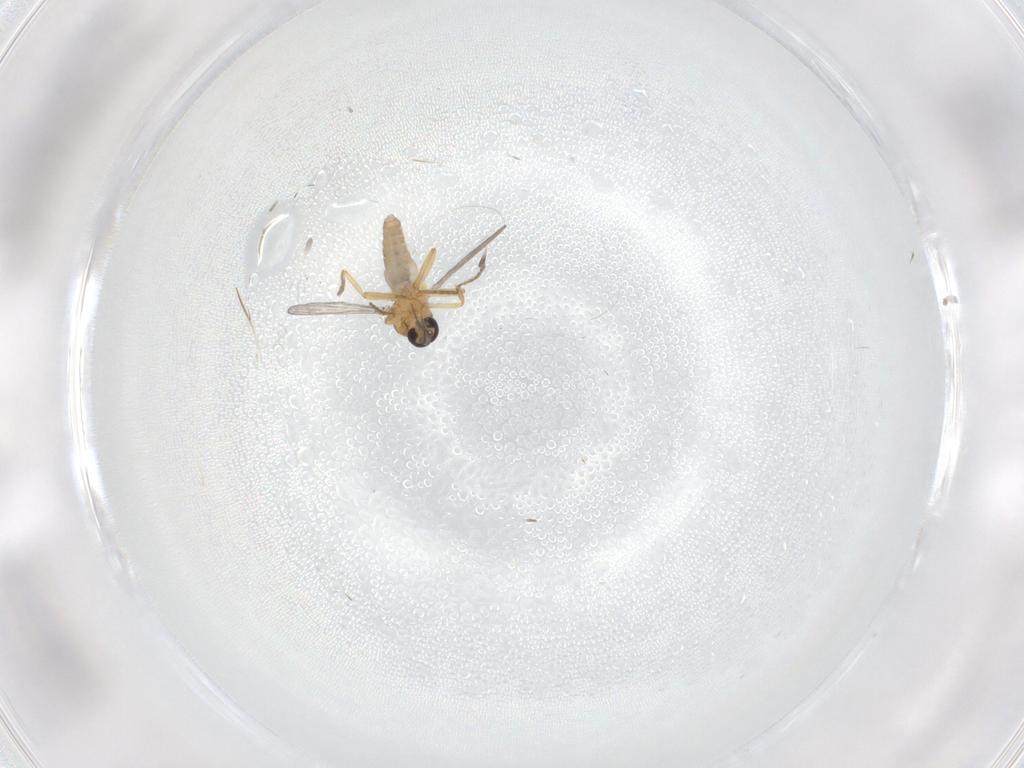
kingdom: Animalia
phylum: Arthropoda
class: Insecta
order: Diptera
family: Ceratopogonidae
